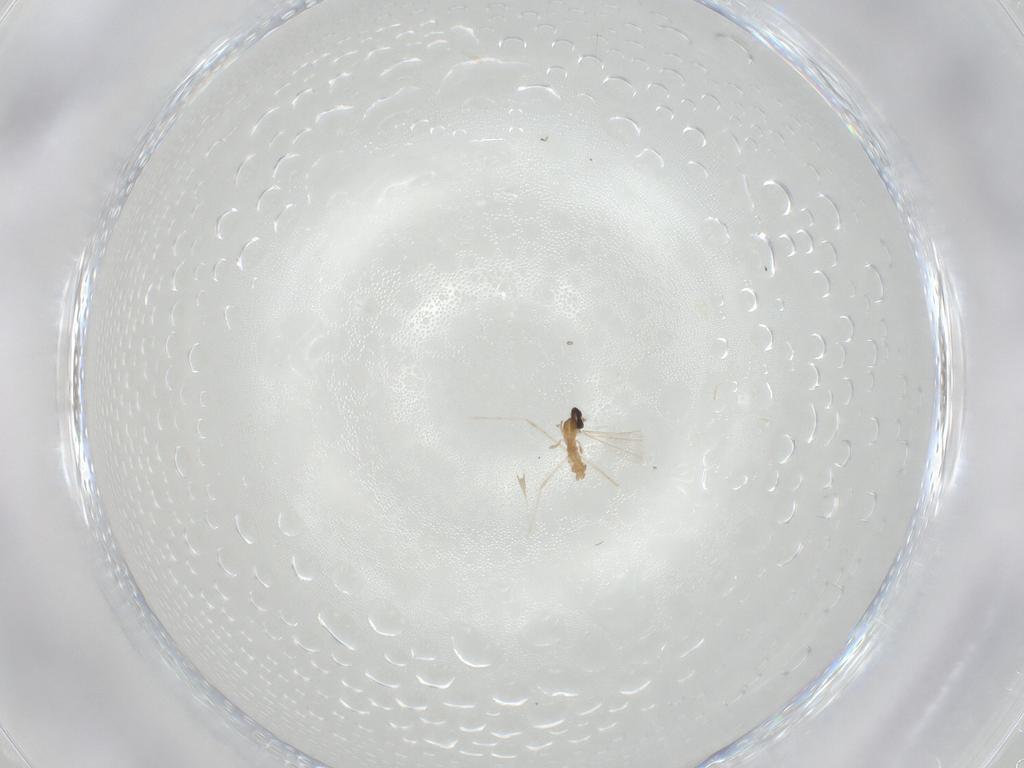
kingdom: Animalia
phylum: Arthropoda
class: Insecta
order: Diptera
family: Cecidomyiidae
